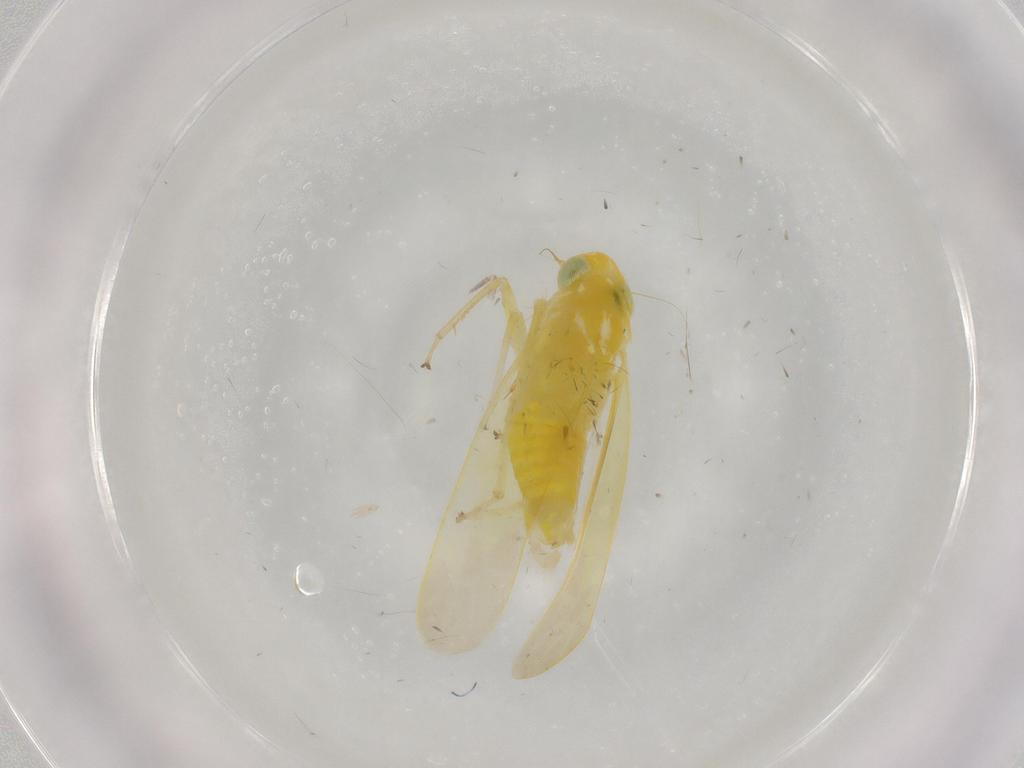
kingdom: Animalia
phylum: Arthropoda
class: Insecta
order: Hemiptera
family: Cicadellidae
